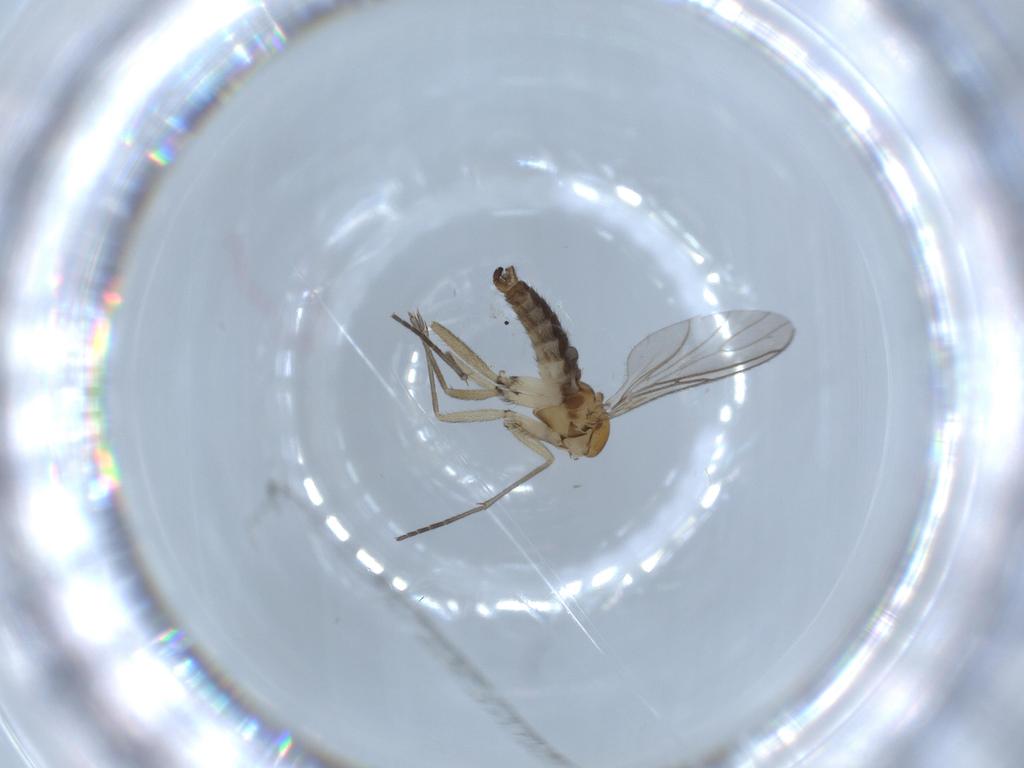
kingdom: Animalia
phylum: Arthropoda
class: Insecta
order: Diptera
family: Sciaridae
